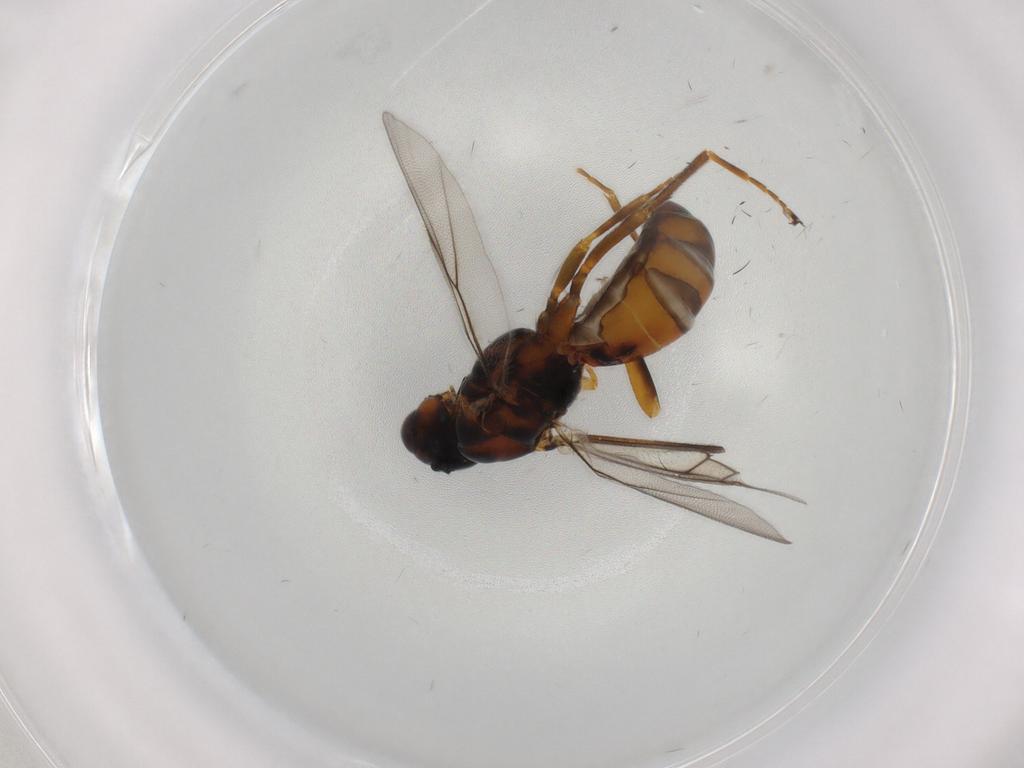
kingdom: Animalia
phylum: Arthropoda
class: Insecta
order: Hymenoptera
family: Braconidae
